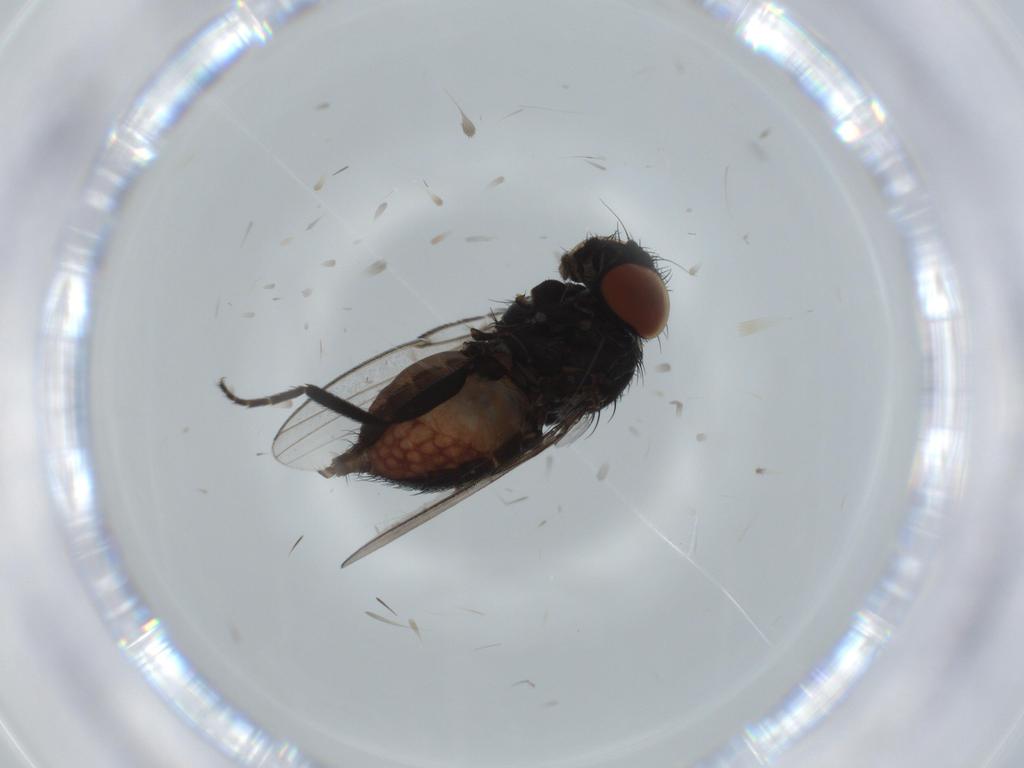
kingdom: Animalia
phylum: Arthropoda
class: Insecta
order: Diptera
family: Milichiidae
